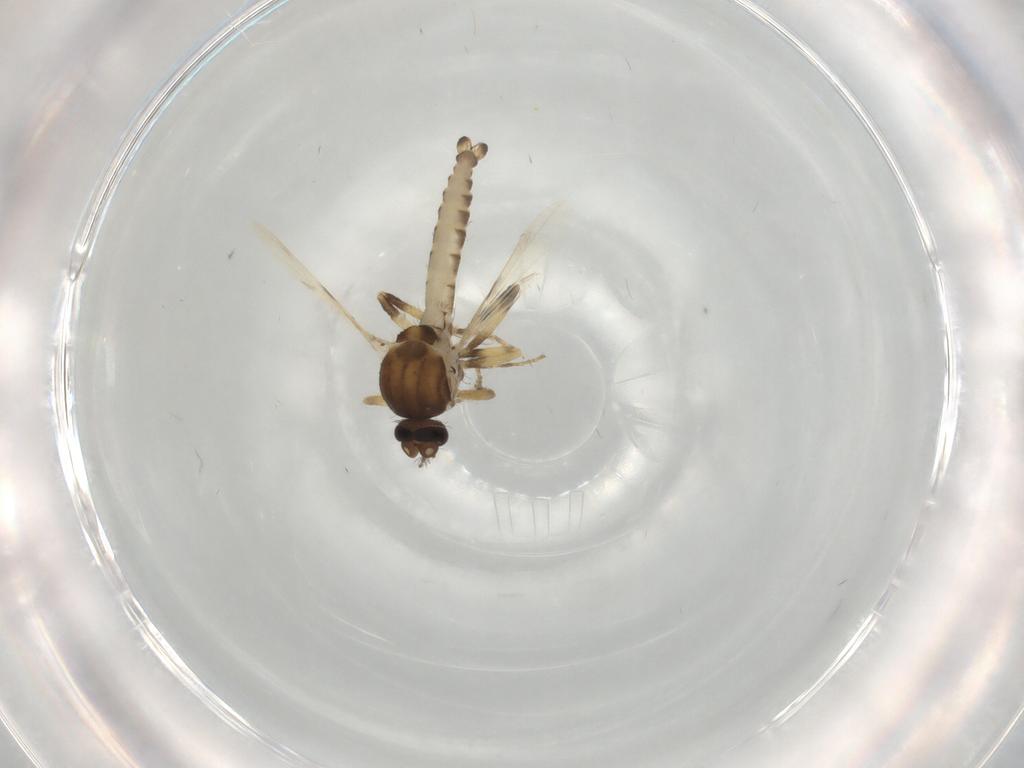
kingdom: Animalia
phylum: Arthropoda
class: Insecta
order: Diptera
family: Ceratopogonidae
